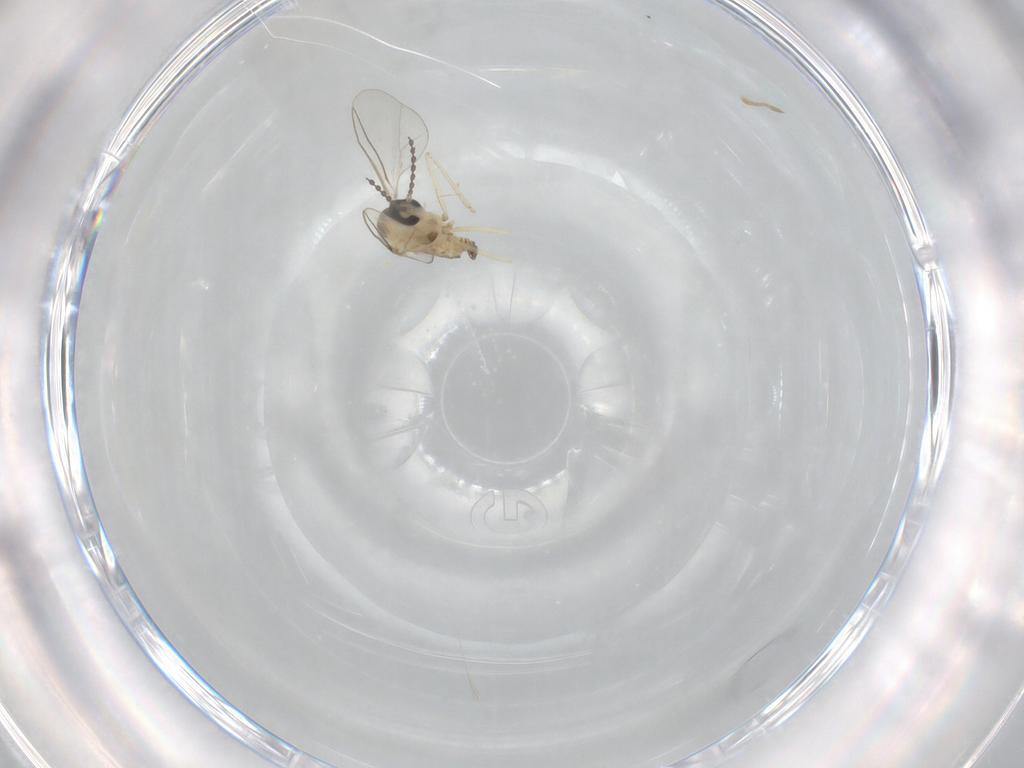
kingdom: Animalia
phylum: Arthropoda
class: Insecta
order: Diptera
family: Cecidomyiidae
